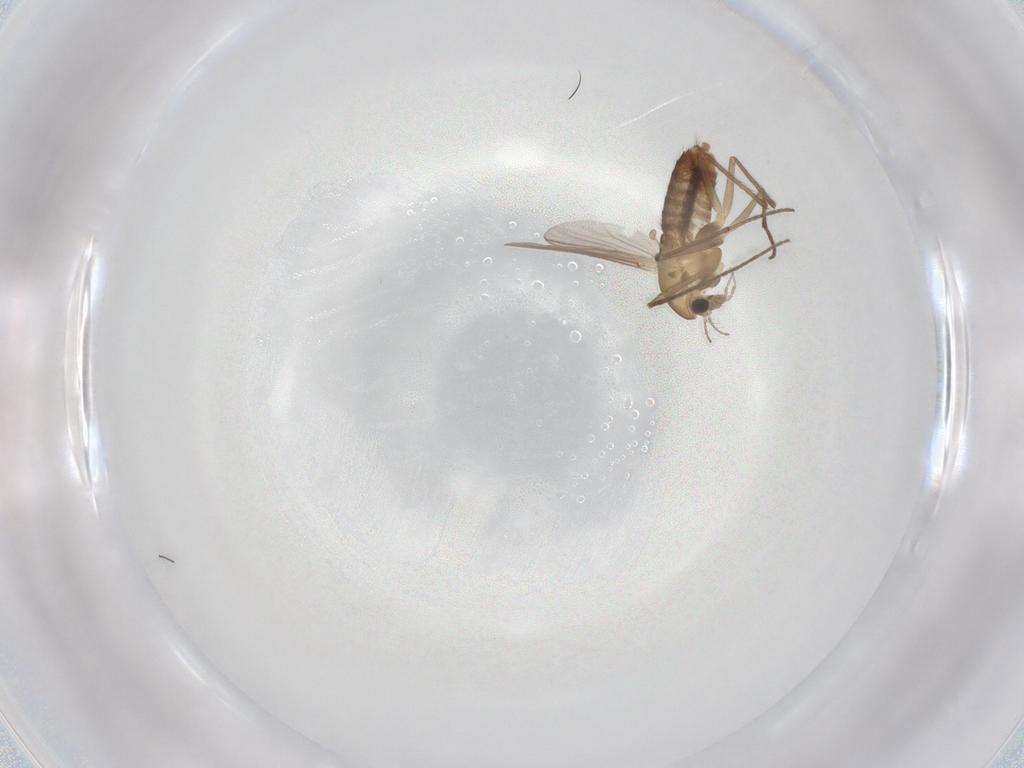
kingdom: Animalia
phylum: Arthropoda
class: Insecta
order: Diptera
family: Chironomidae
